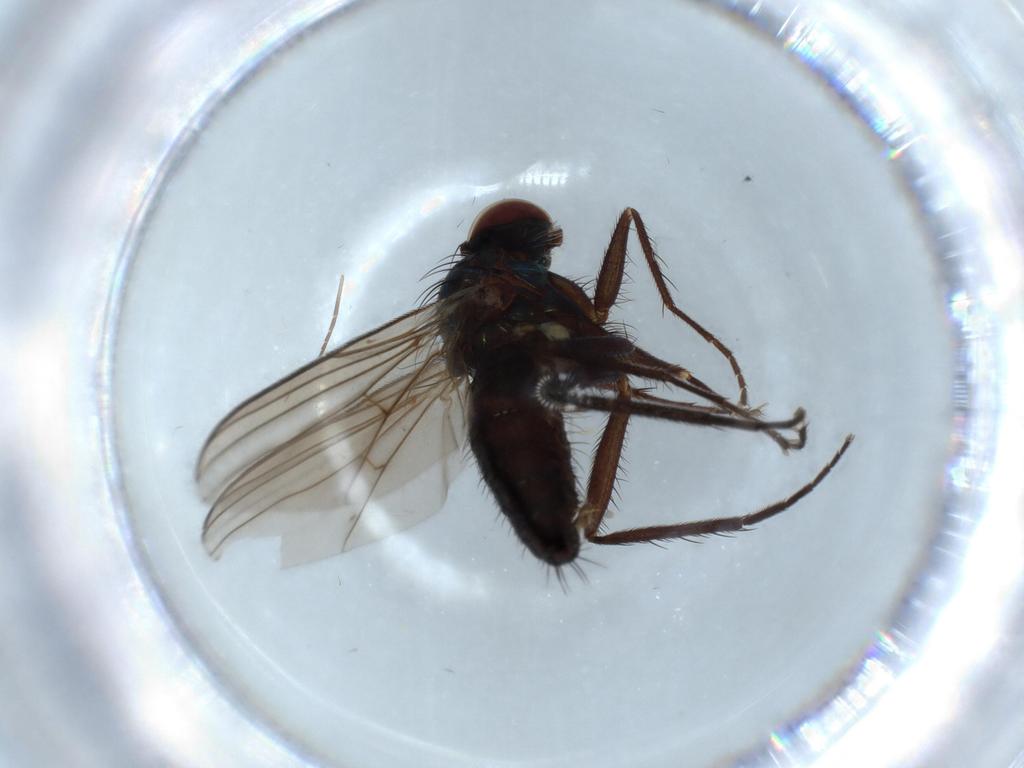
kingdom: Animalia
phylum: Arthropoda
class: Insecta
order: Diptera
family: Dolichopodidae
